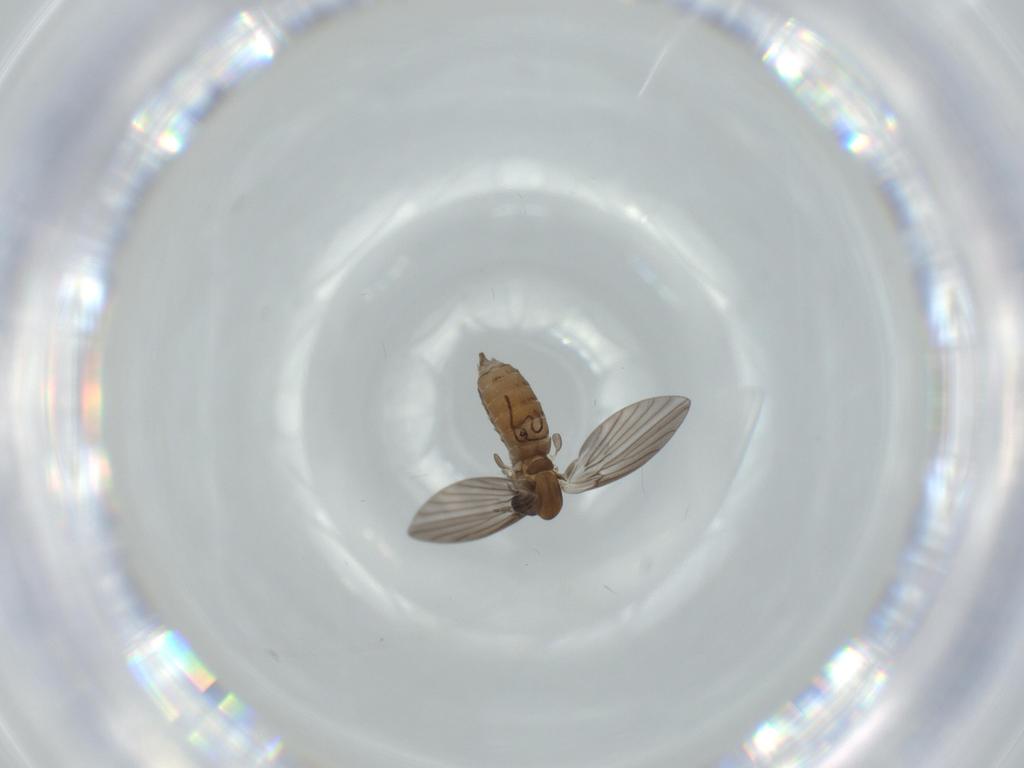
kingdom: Animalia
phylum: Arthropoda
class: Insecta
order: Diptera
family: Psychodidae
